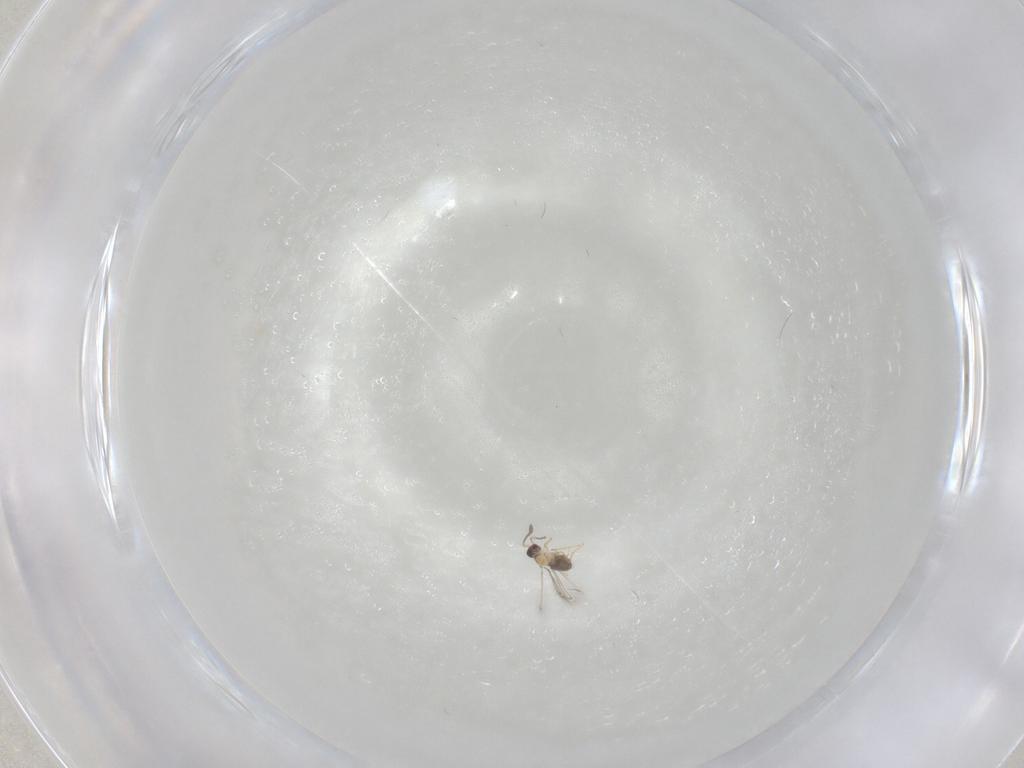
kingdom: Animalia
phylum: Arthropoda
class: Insecta
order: Hymenoptera
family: Mymaridae
